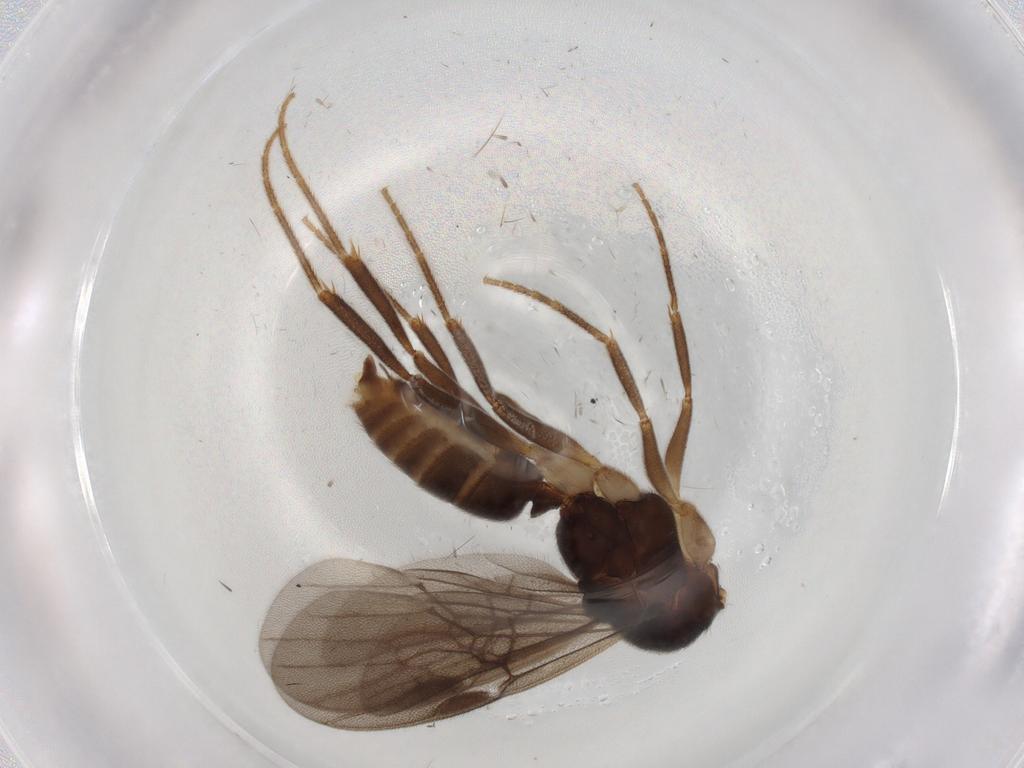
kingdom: Animalia
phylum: Arthropoda
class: Insecta
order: Hymenoptera
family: Formicidae
